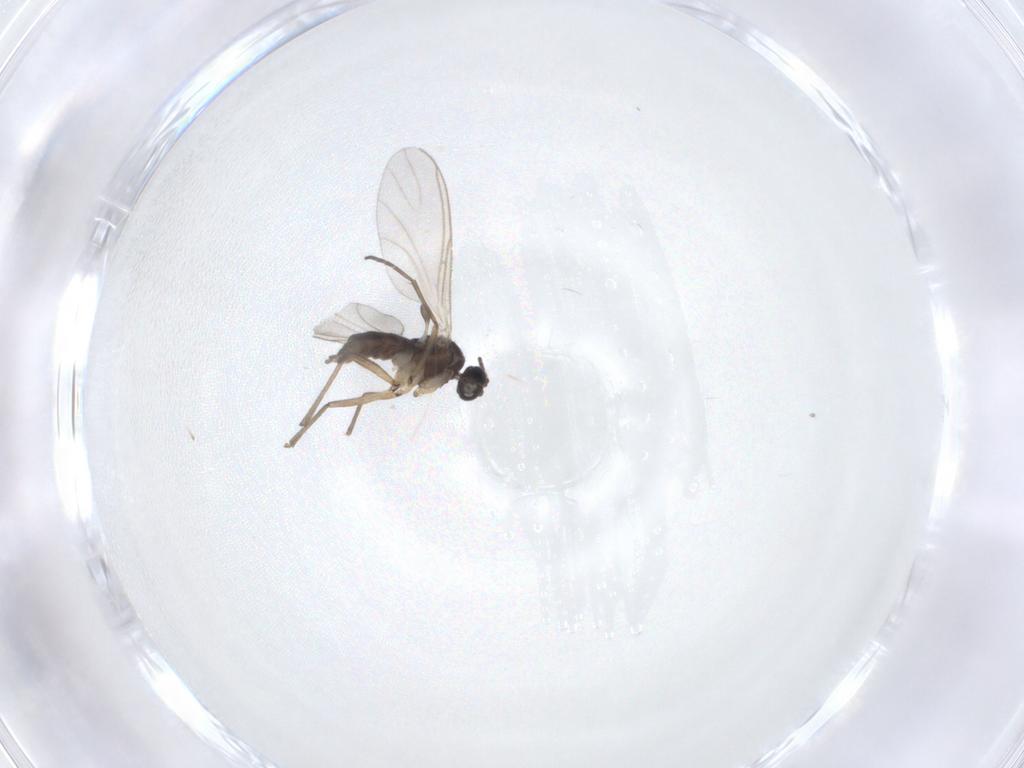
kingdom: Animalia
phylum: Arthropoda
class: Insecta
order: Diptera
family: Sciaridae
